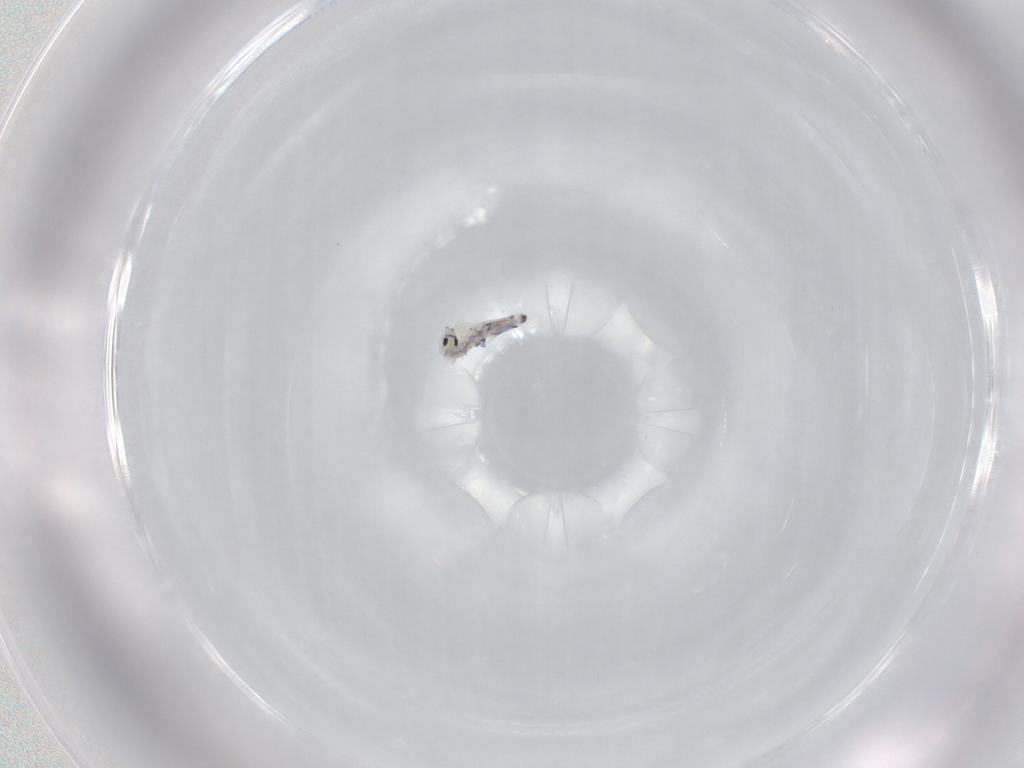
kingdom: Animalia
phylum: Arthropoda
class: Collembola
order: Entomobryomorpha
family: Entomobryidae
